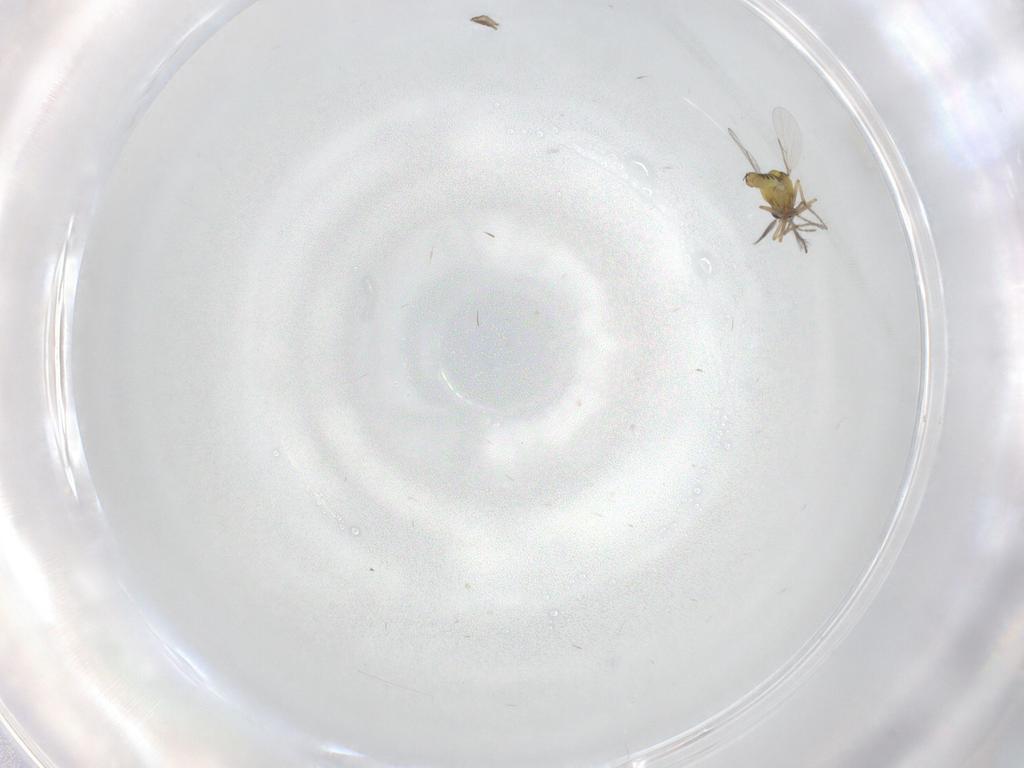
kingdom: Animalia
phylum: Arthropoda
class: Insecta
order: Diptera
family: Ceratopogonidae
